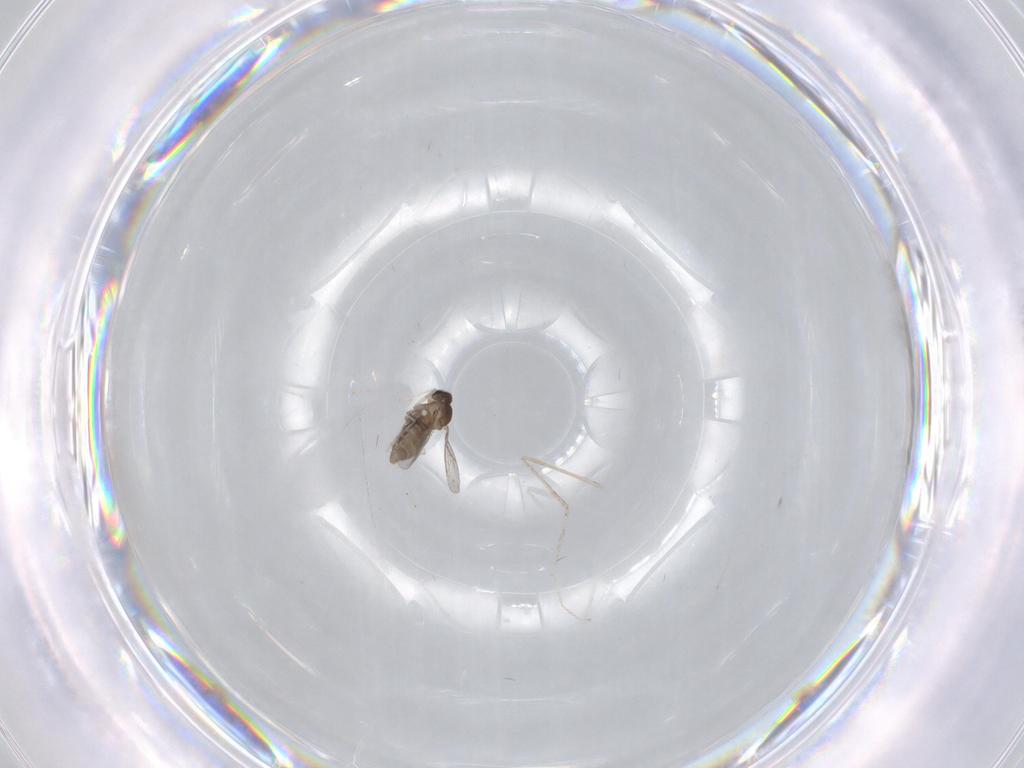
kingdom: Animalia
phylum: Arthropoda
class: Insecta
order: Diptera
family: Cecidomyiidae
